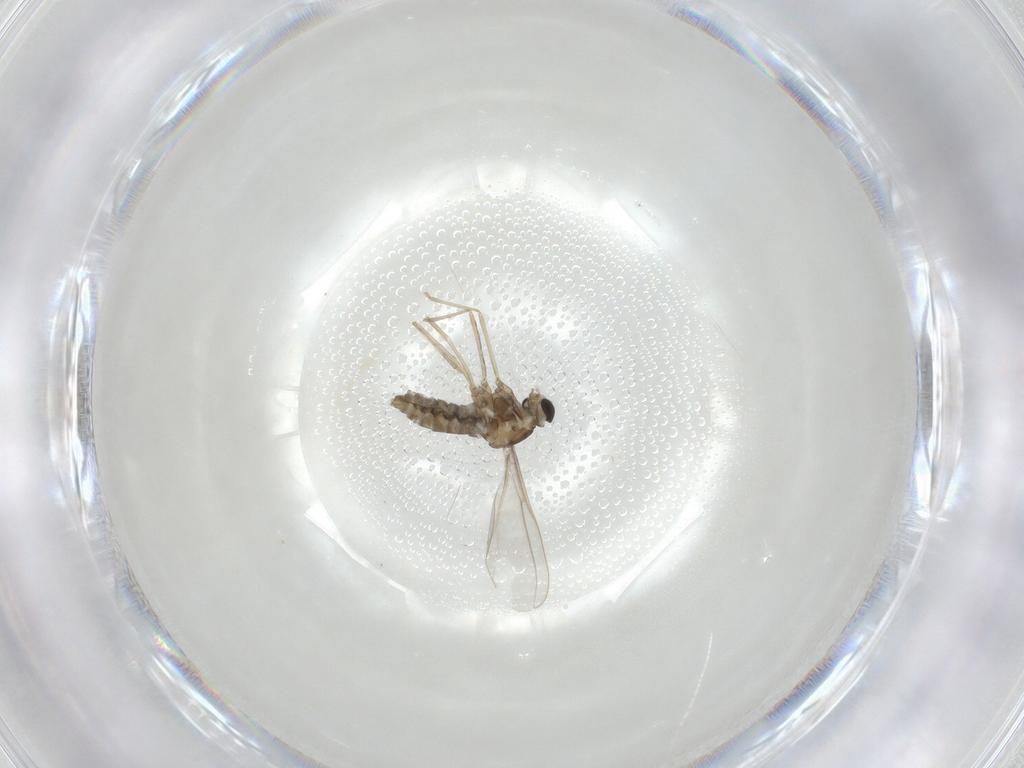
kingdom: Animalia
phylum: Arthropoda
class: Insecta
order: Diptera
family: Cecidomyiidae
